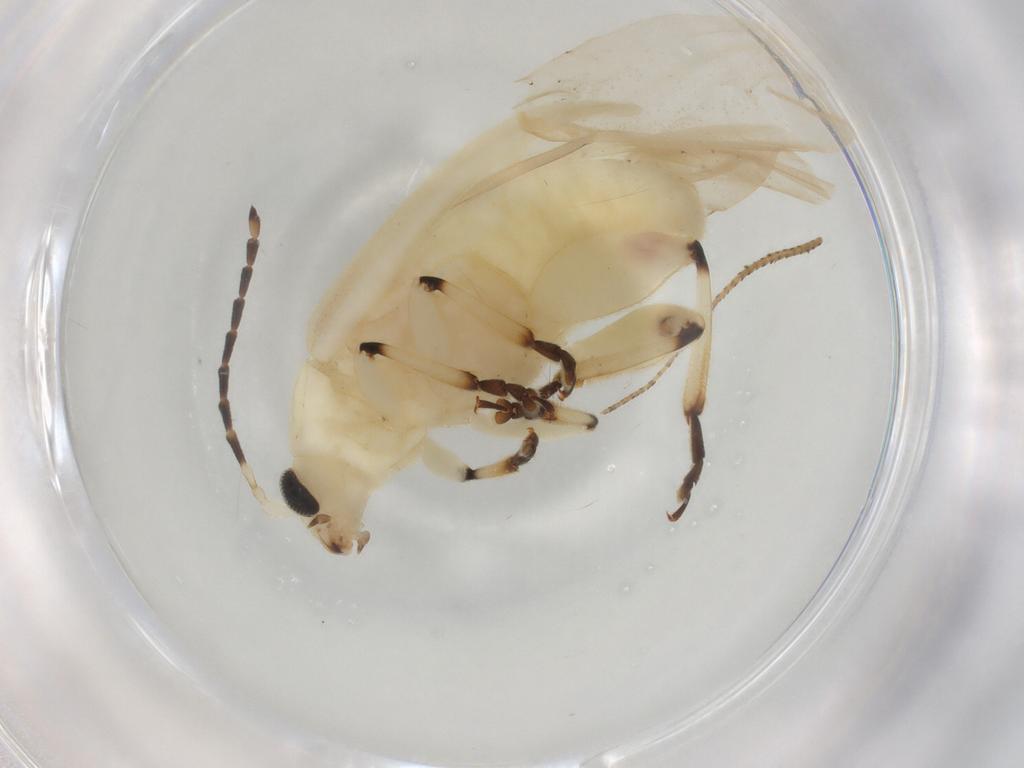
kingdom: Animalia
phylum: Arthropoda
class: Insecta
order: Coleoptera
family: Chrysomelidae
